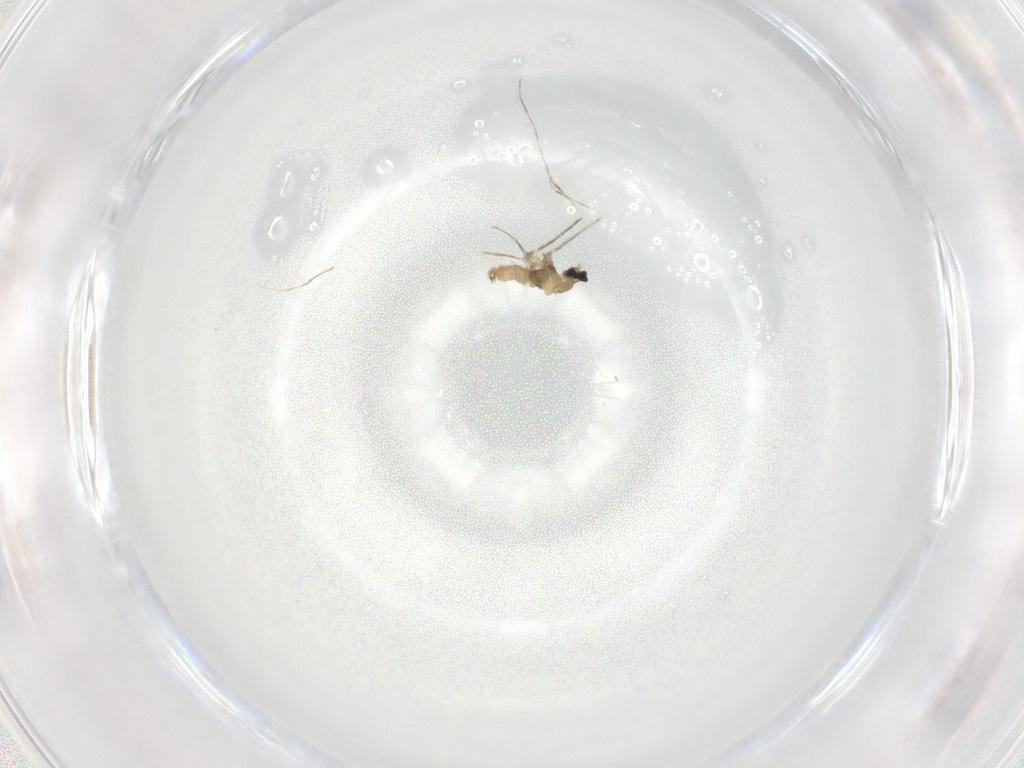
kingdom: Animalia
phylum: Arthropoda
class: Insecta
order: Diptera
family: Cecidomyiidae
